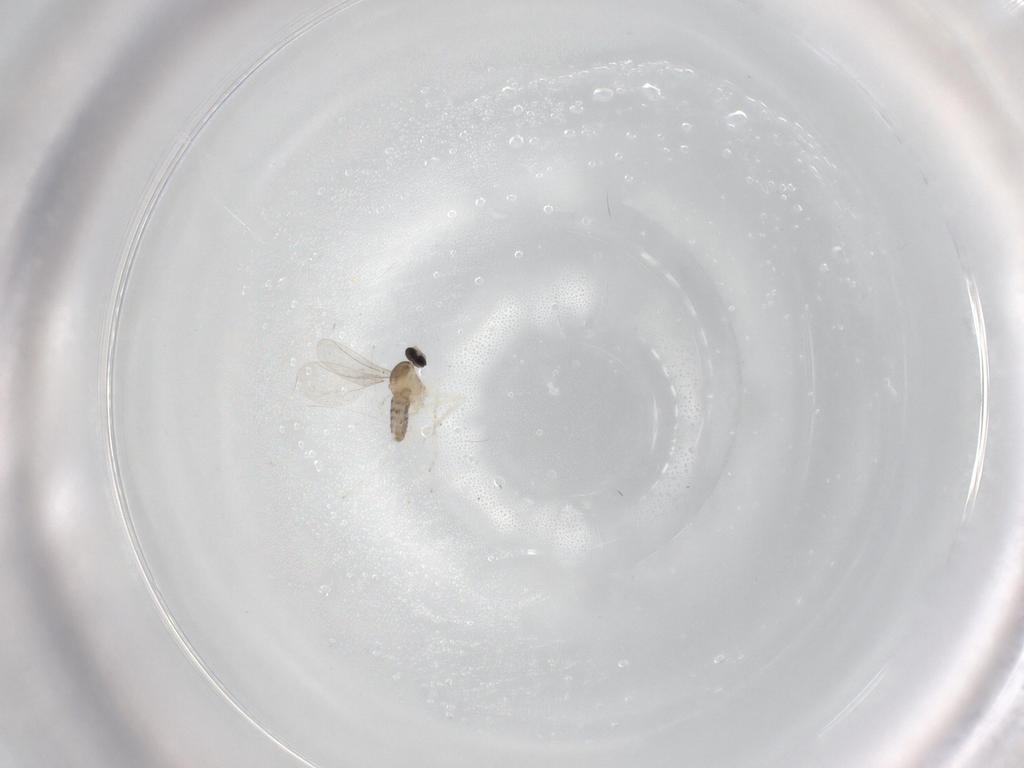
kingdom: Animalia
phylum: Arthropoda
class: Insecta
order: Diptera
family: Cecidomyiidae
